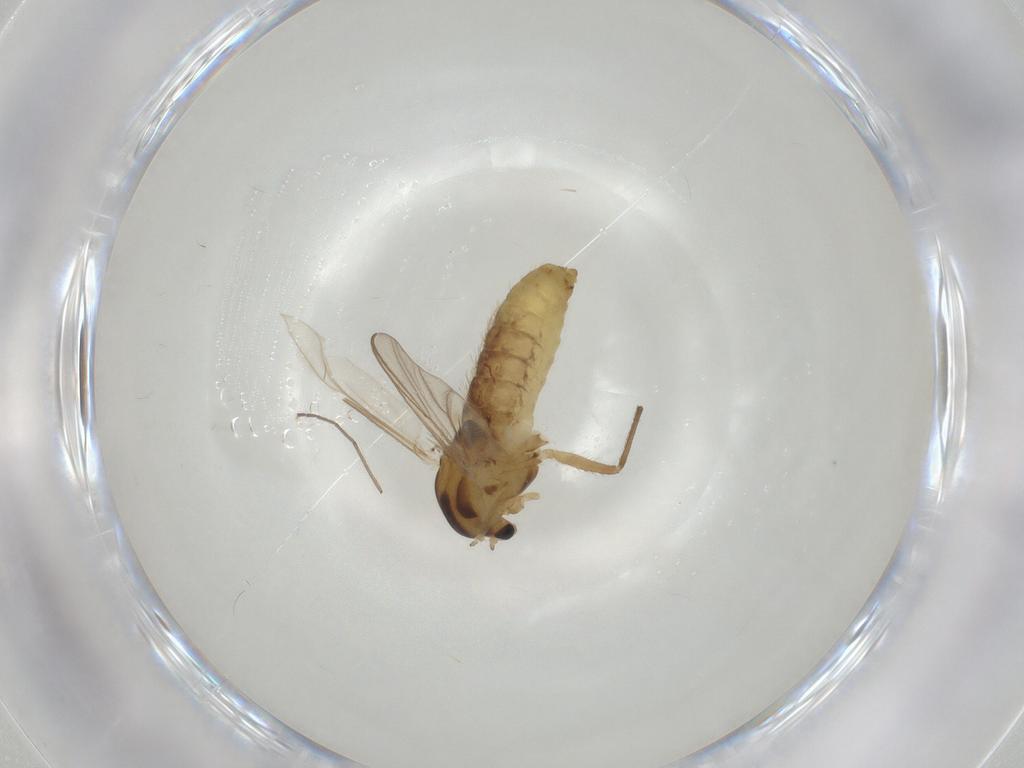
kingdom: Animalia
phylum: Arthropoda
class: Insecta
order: Diptera
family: Chironomidae
